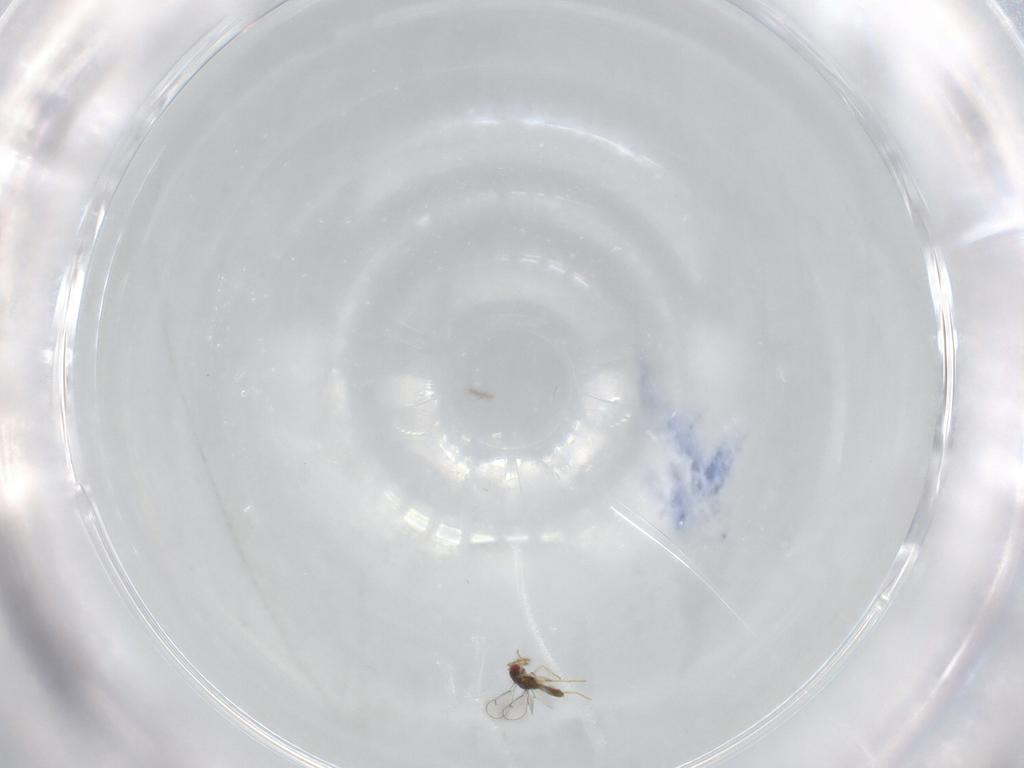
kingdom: Animalia
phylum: Arthropoda
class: Insecta
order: Hymenoptera
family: Eulophidae
